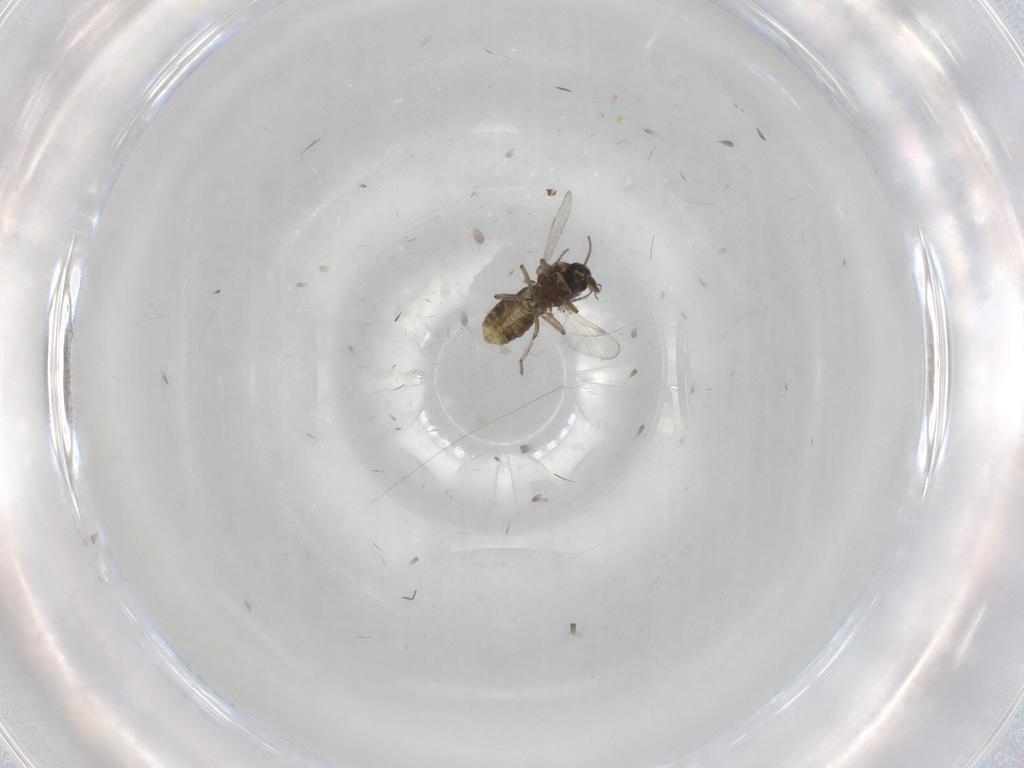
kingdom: Animalia
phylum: Arthropoda
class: Insecta
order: Diptera
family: Ceratopogonidae
